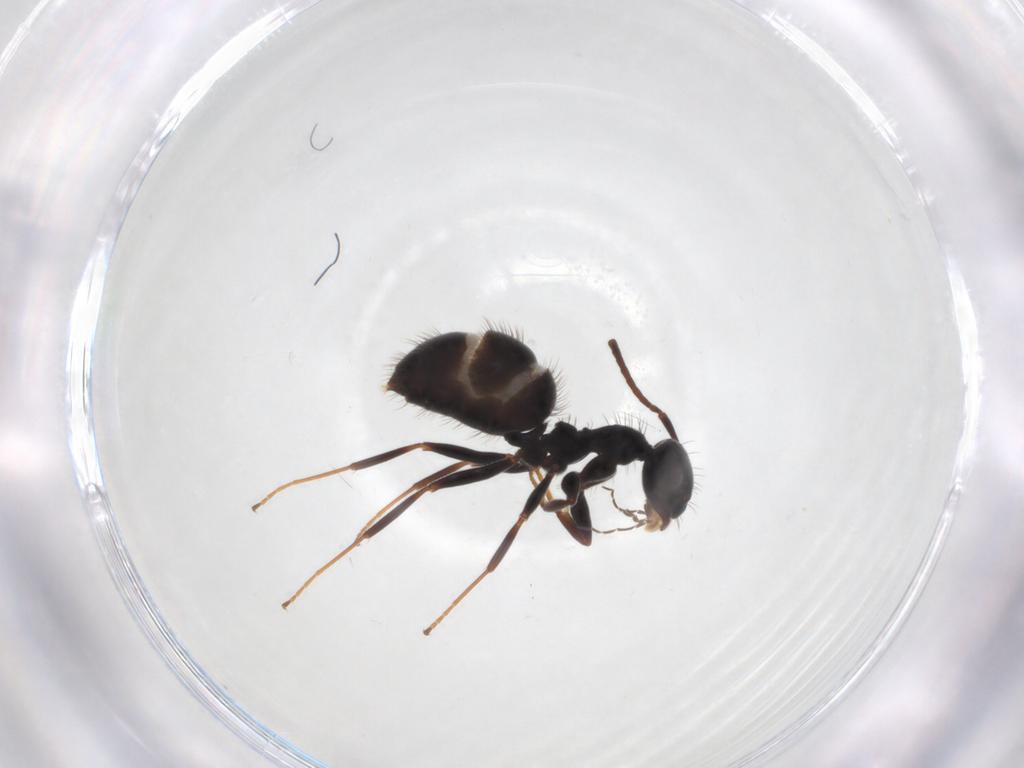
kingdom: Animalia
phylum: Arthropoda
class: Insecta
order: Hymenoptera
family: Formicidae
